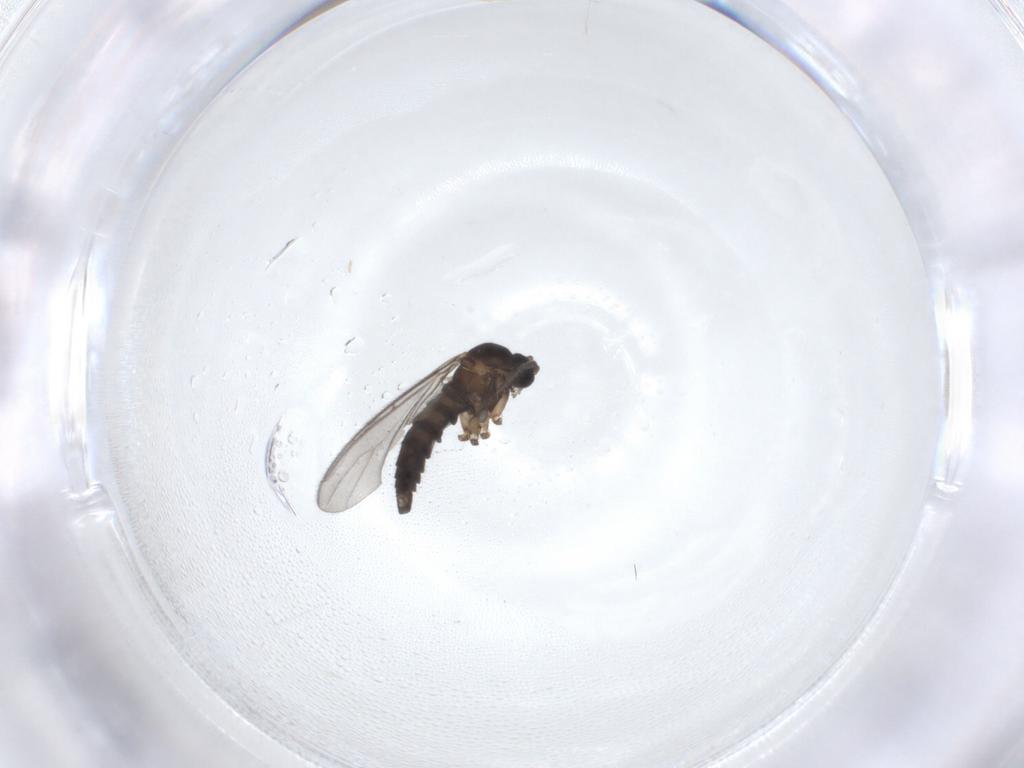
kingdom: Animalia
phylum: Arthropoda
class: Insecta
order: Diptera
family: Sciaridae
